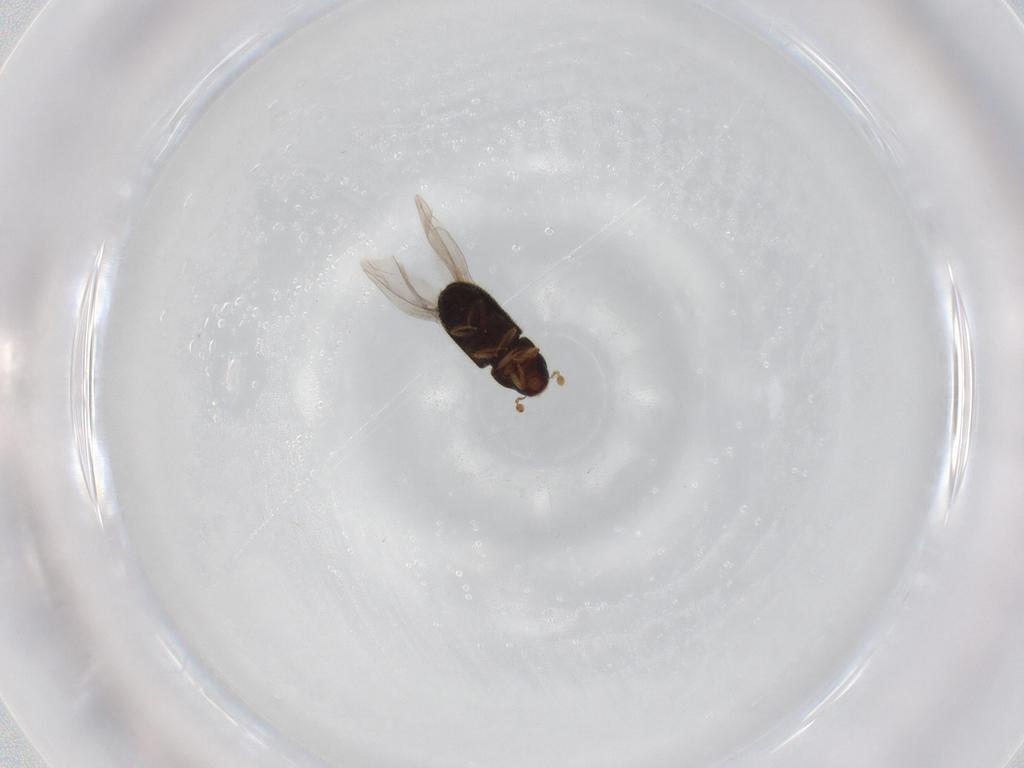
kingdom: Animalia
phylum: Arthropoda
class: Insecta
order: Coleoptera
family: Curculionidae
